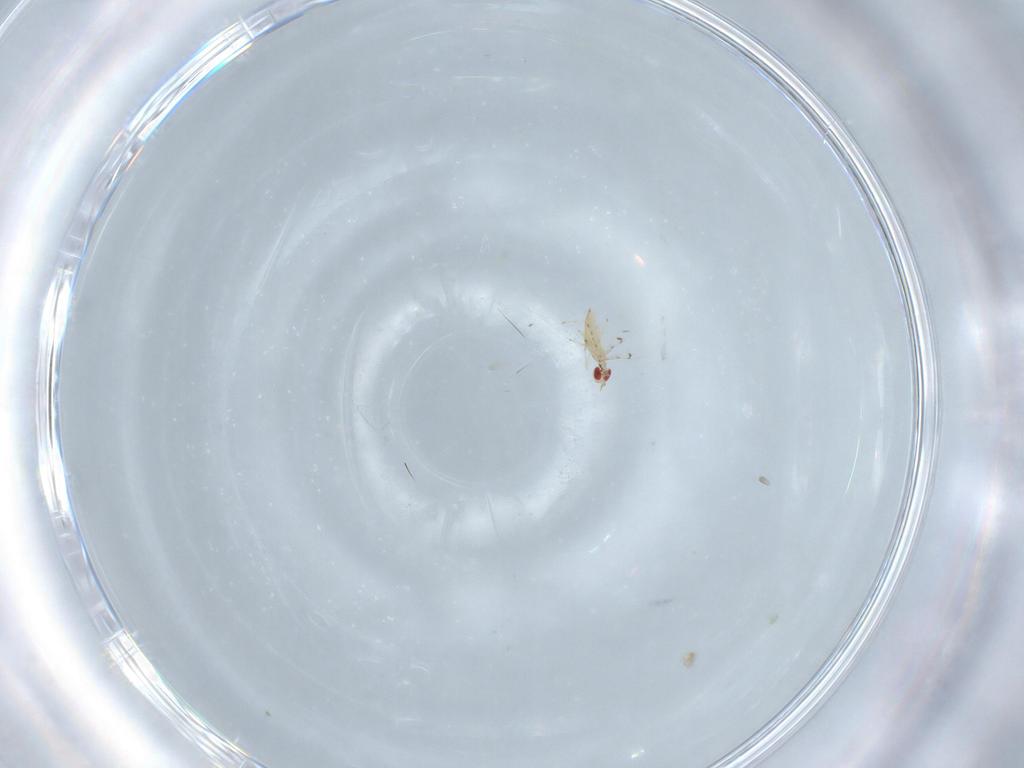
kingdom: Animalia
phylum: Arthropoda
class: Insecta
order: Hymenoptera
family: Trichogrammatidae
